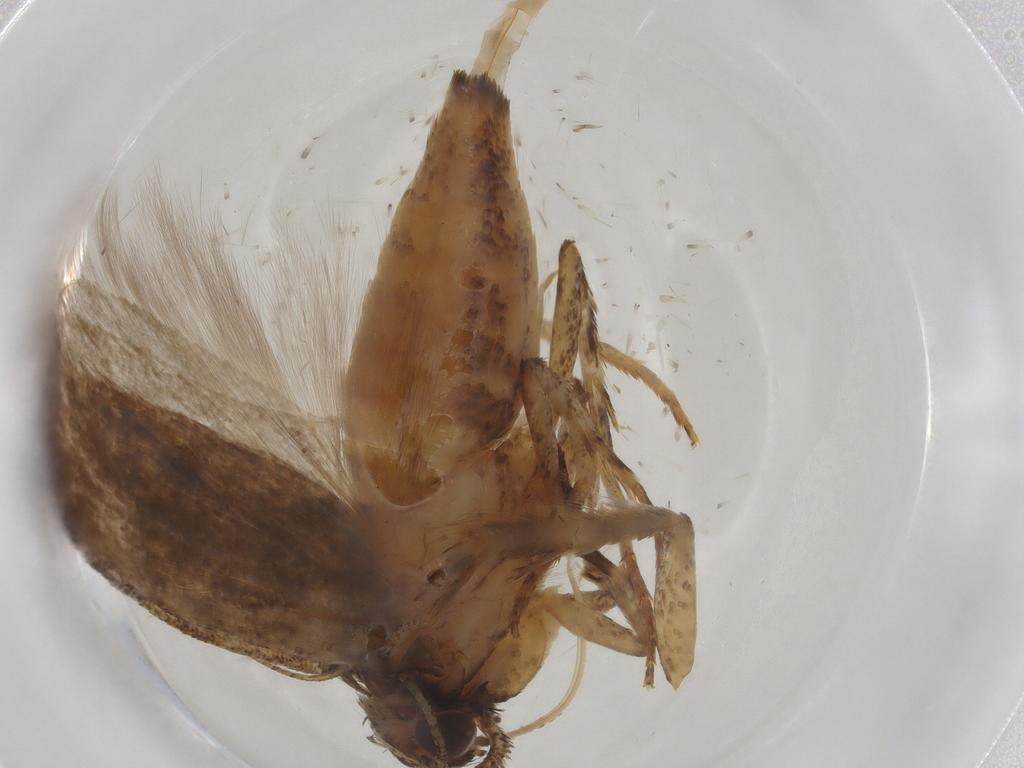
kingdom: Animalia
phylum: Arthropoda
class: Insecta
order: Lepidoptera
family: Gelechiidae
